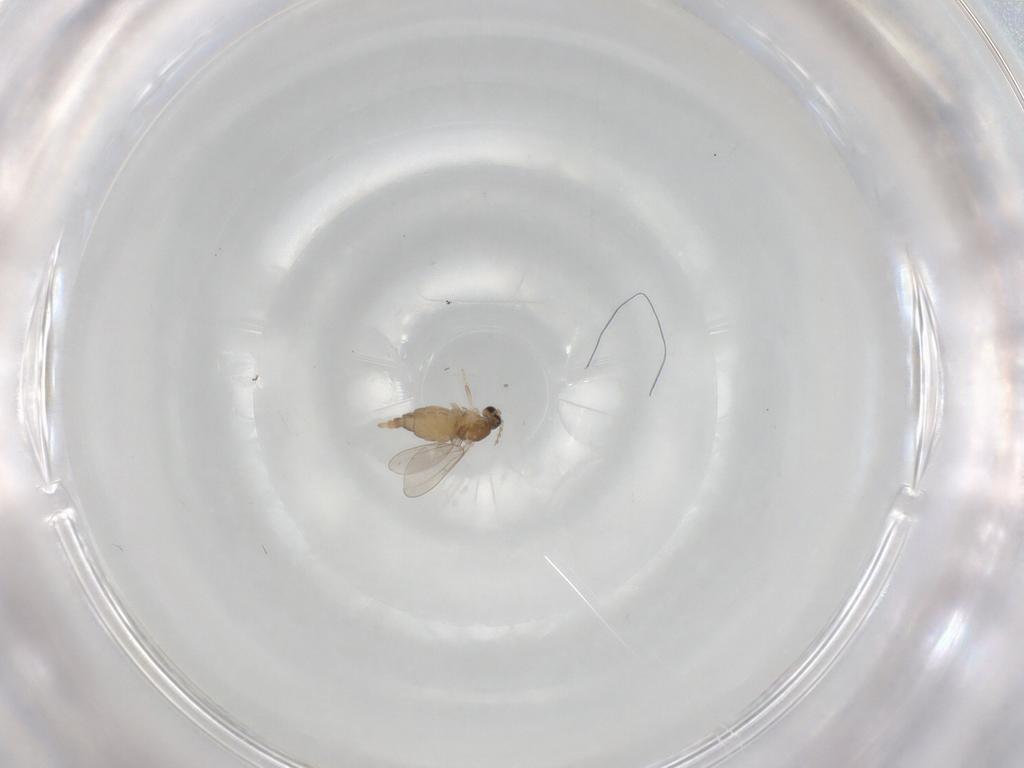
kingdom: Animalia
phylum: Arthropoda
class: Insecta
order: Diptera
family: Cecidomyiidae
